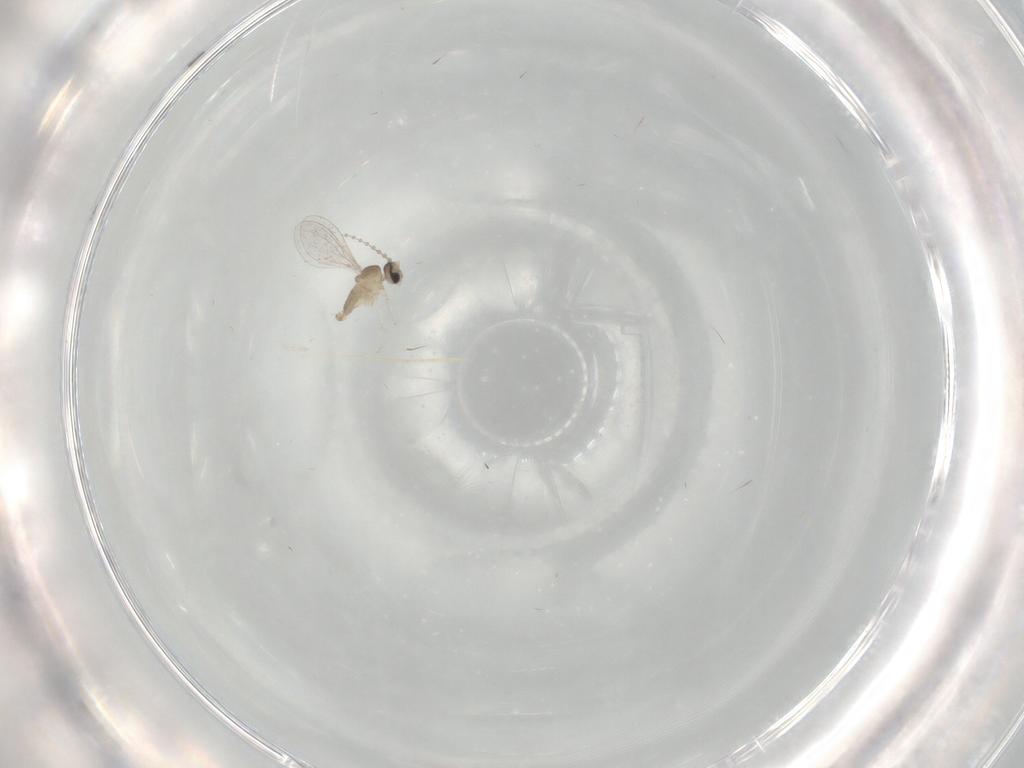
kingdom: Animalia
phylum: Arthropoda
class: Insecta
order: Diptera
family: Cecidomyiidae
